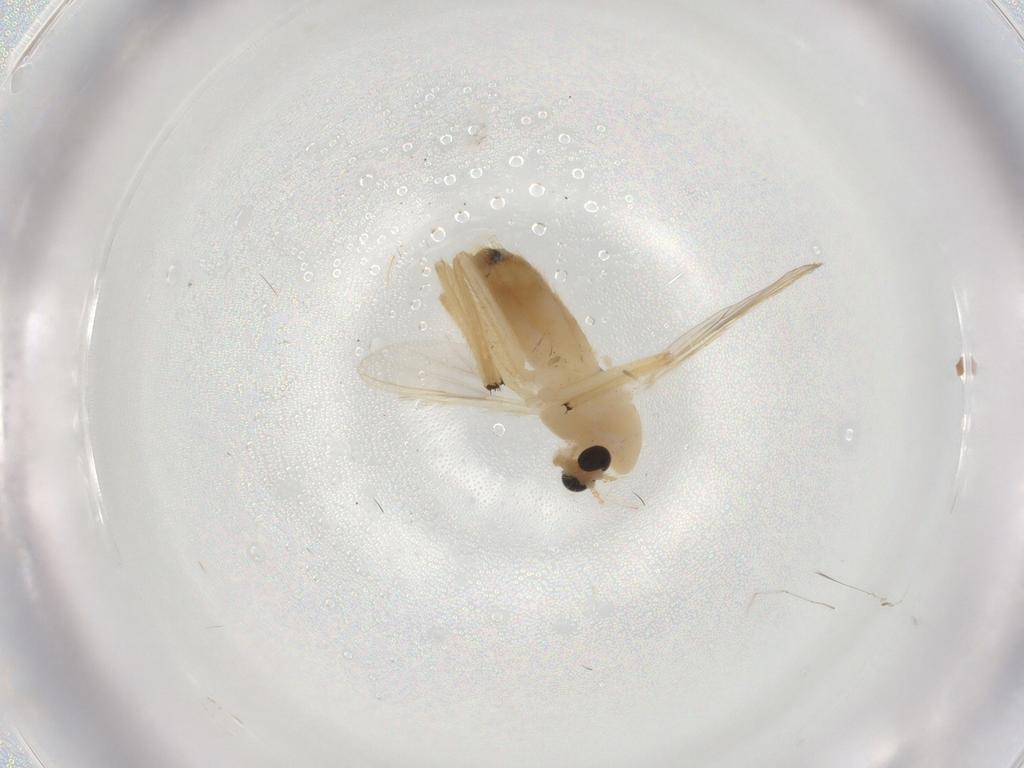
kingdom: Animalia
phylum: Arthropoda
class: Insecta
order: Diptera
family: Chironomidae
